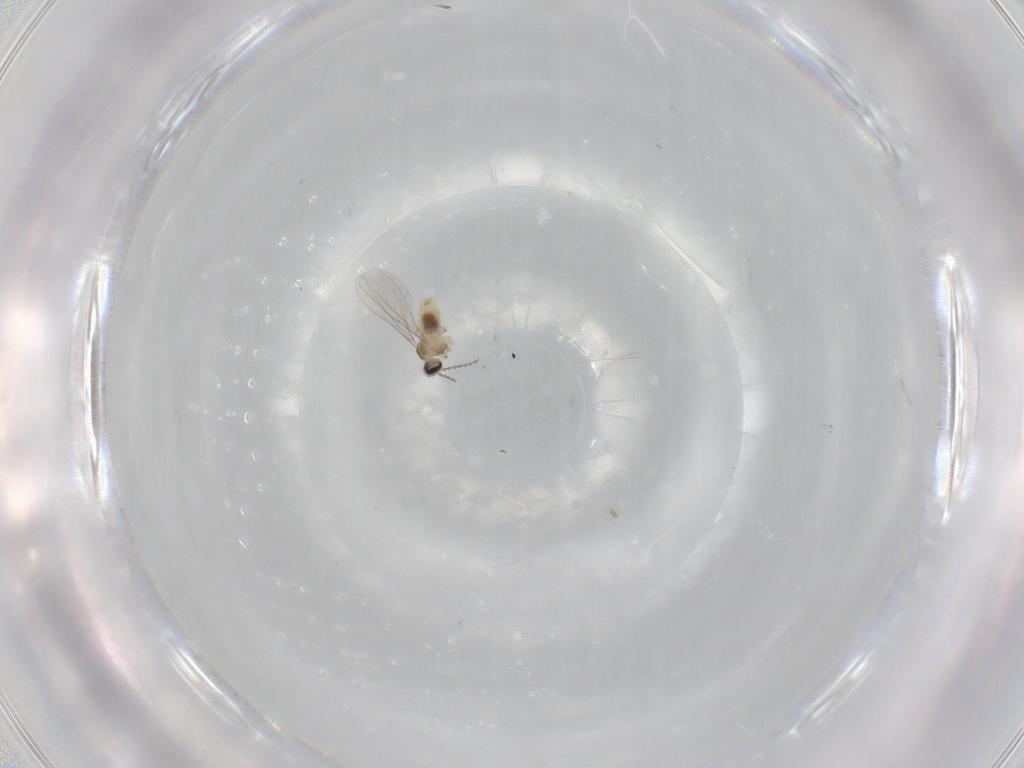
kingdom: Animalia
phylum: Arthropoda
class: Insecta
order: Diptera
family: Cecidomyiidae
